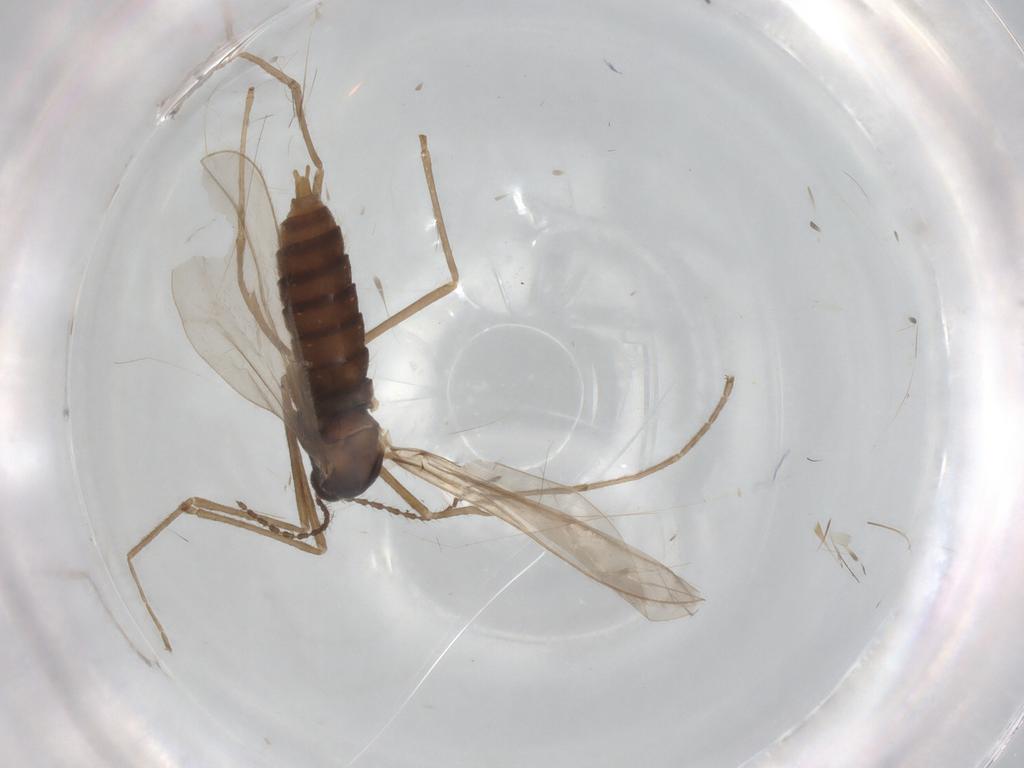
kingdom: Animalia
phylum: Arthropoda
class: Insecta
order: Diptera
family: Cecidomyiidae
